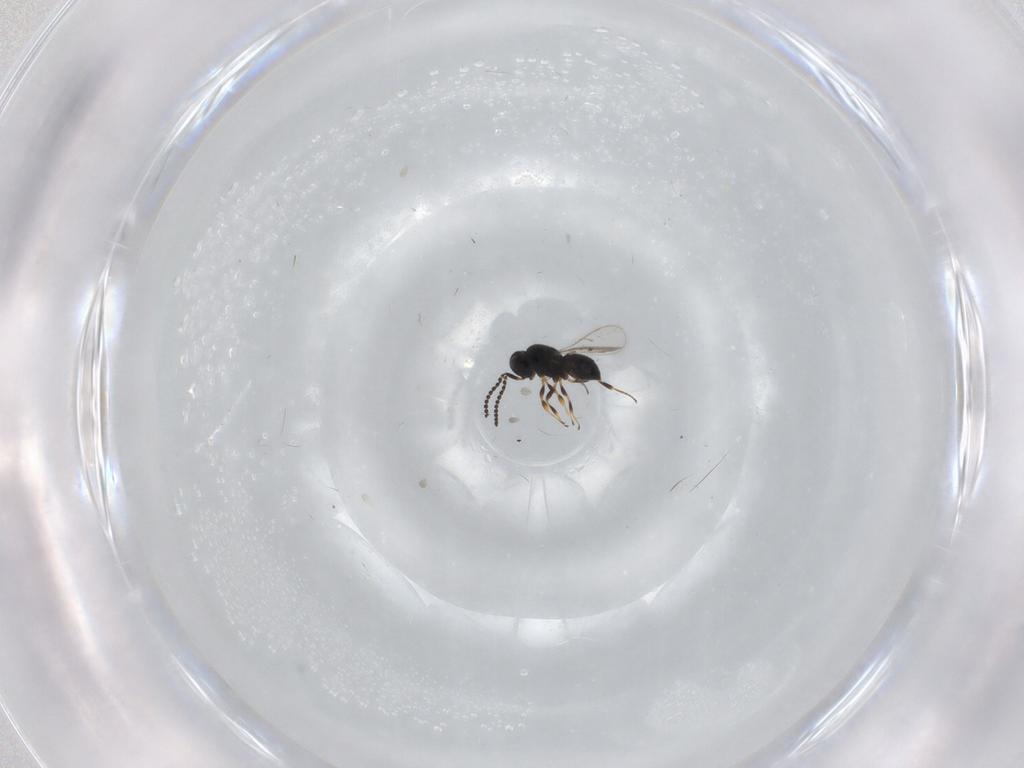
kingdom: Animalia
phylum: Arthropoda
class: Insecta
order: Hymenoptera
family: Scelionidae
